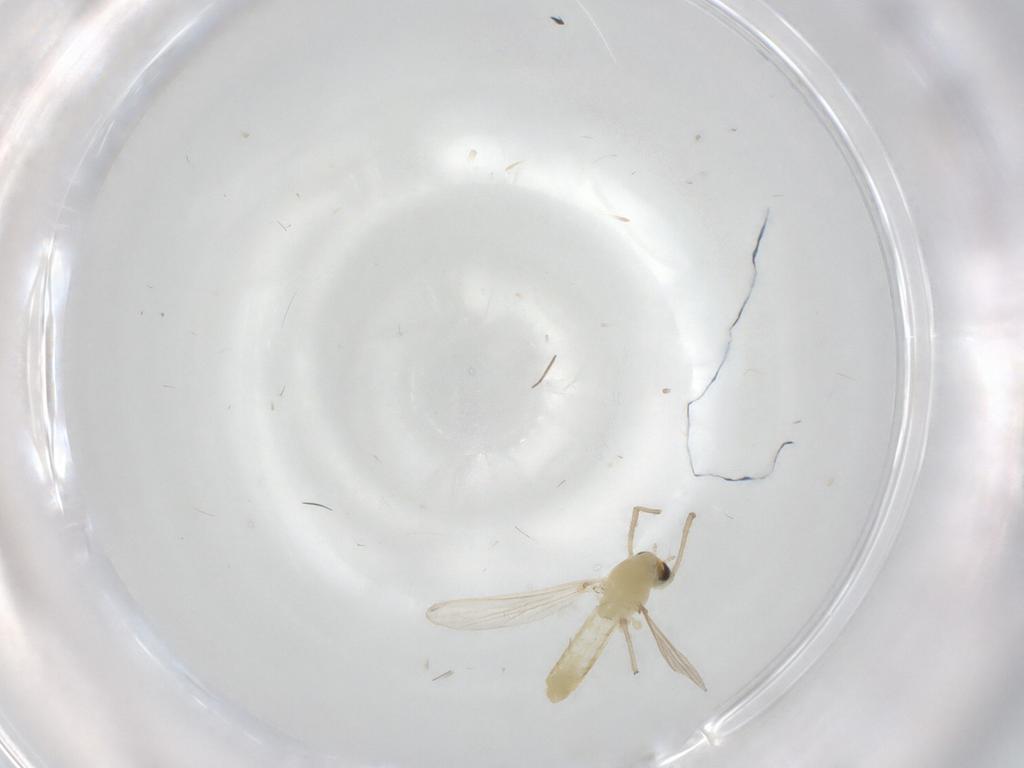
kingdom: Animalia
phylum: Arthropoda
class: Insecta
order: Diptera
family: Chironomidae
